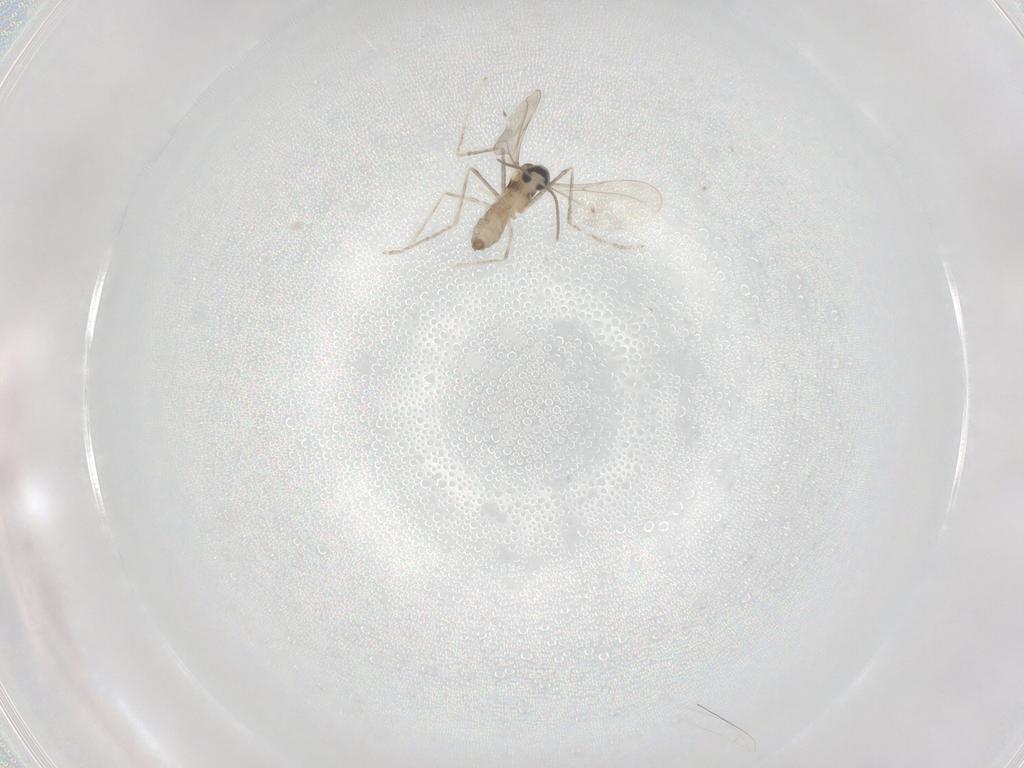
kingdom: Animalia
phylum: Arthropoda
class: Insecta
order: Diptera
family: Cecidomyiidae
